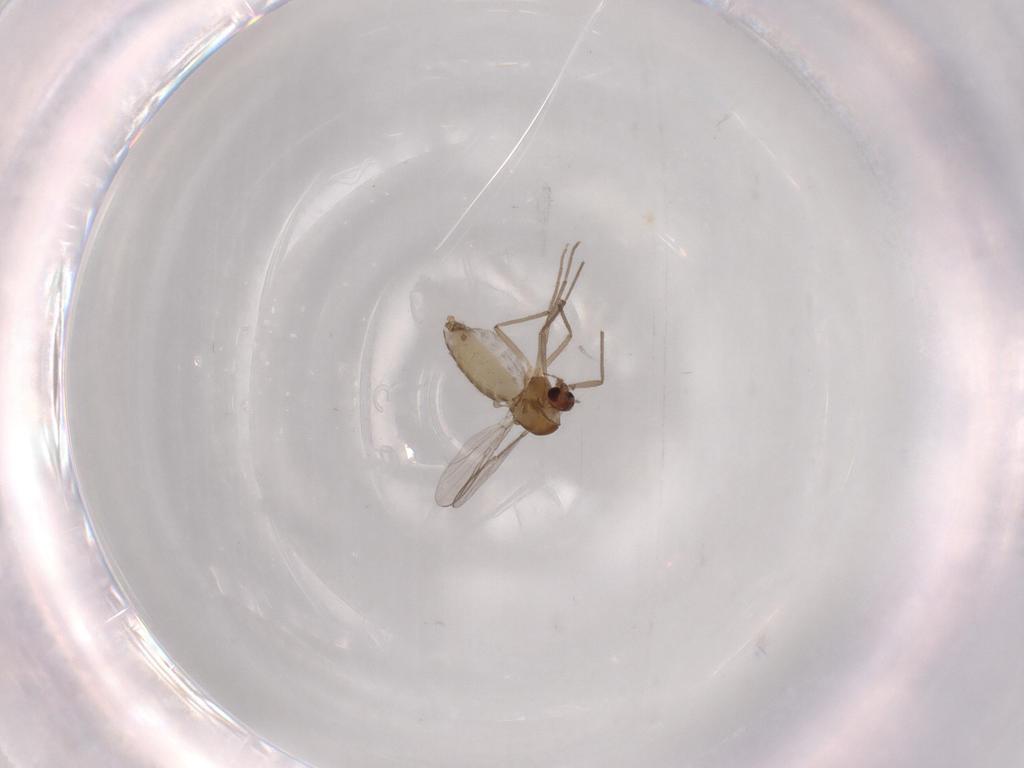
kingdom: Animalia
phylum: Arthropoda
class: Insecta
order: Diptera
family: Chironomidae
